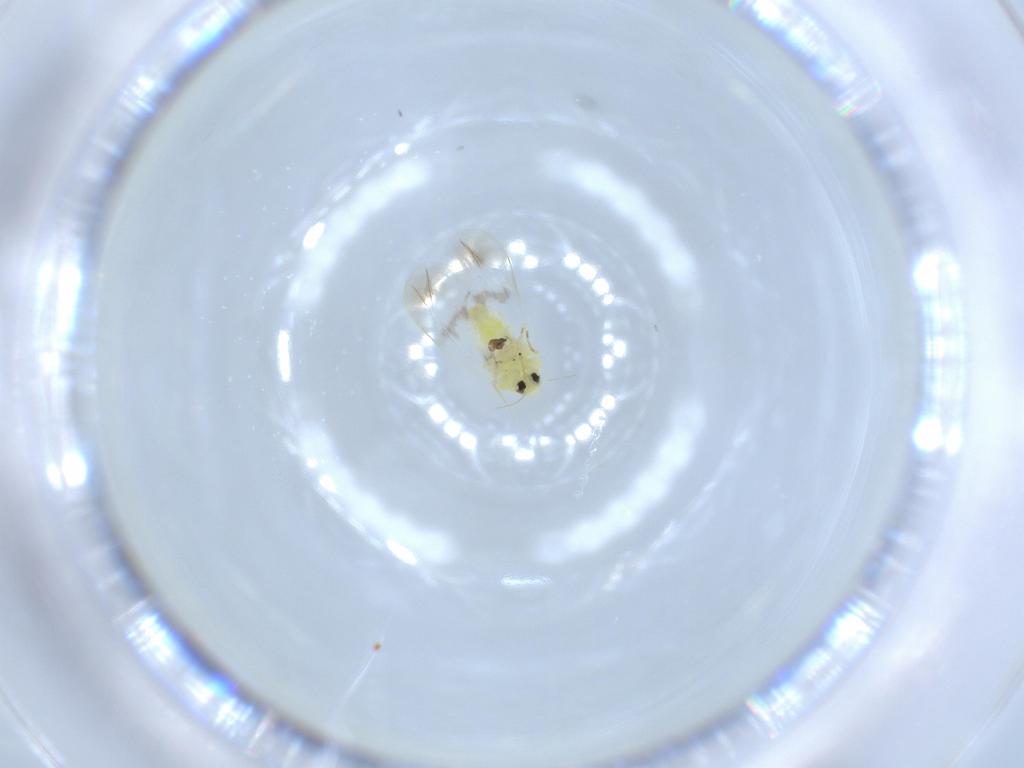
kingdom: Animalia
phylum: Arthropoda
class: Insecta
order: Hemiptera
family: Aleyrodidae
